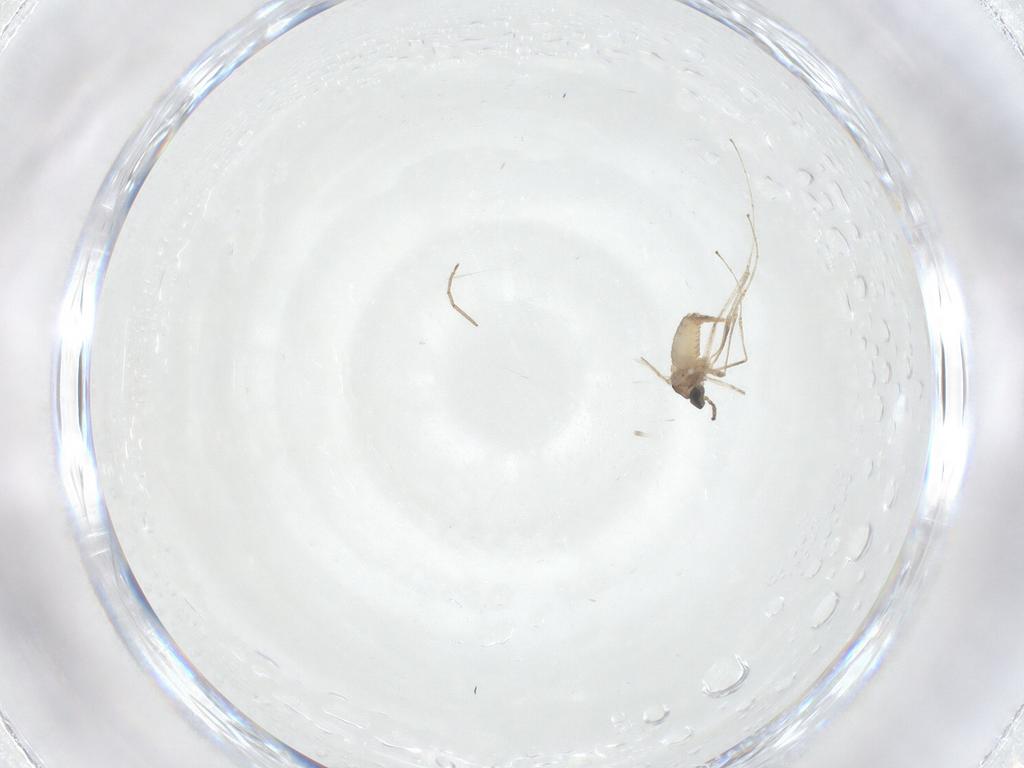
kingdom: Animalia
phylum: Arthropoda
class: Insecta
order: Diptera
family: Cecidomyiidae
